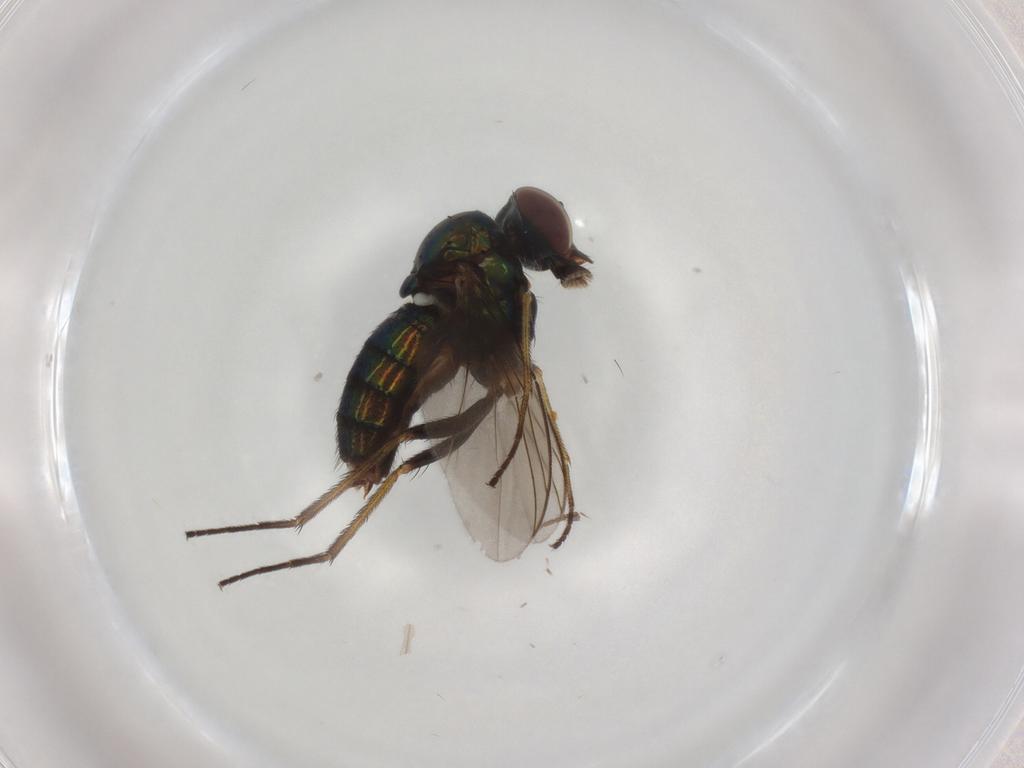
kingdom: Animalia
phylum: Arthropoda
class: Insecta
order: Diptera
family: Dolichopodidae
